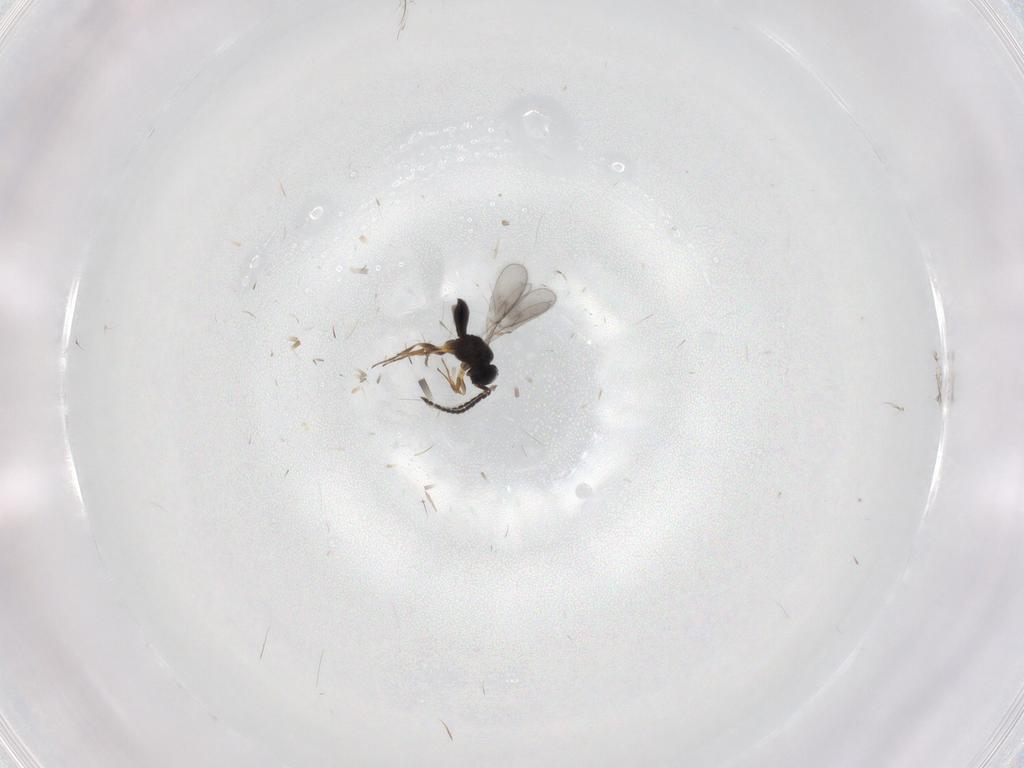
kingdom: Animalia
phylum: Arthropoda
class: Insecta
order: Hymenoptera
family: Scelionidae
